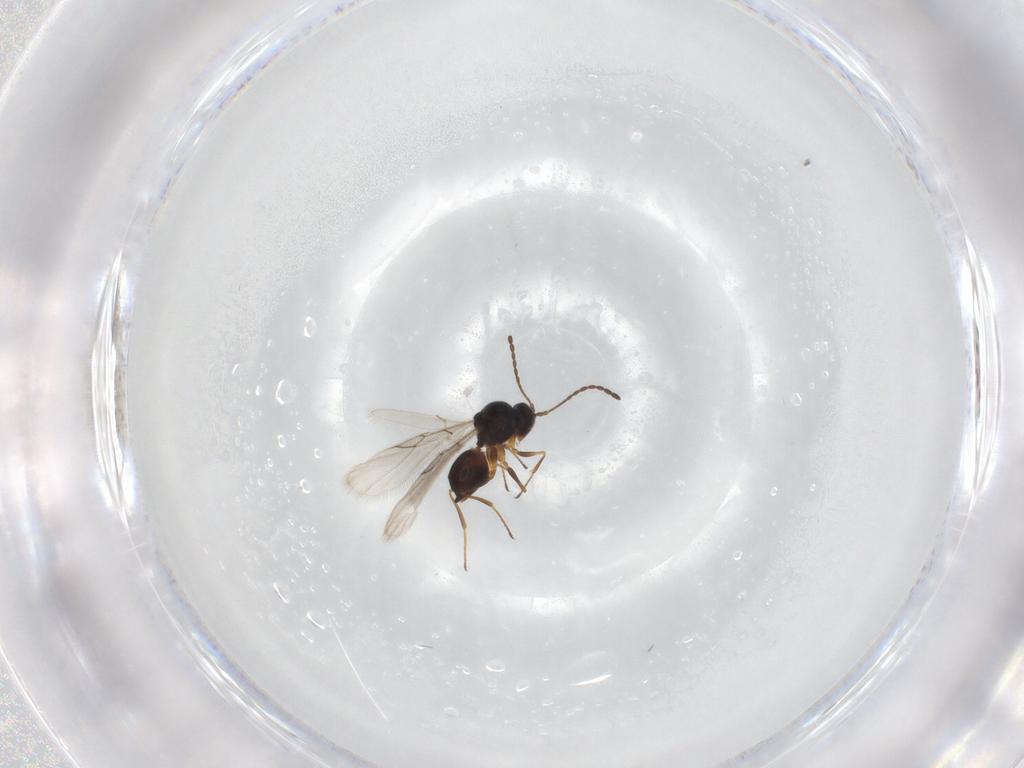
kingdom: Animalia
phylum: Arthropoda
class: Insecta
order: Hymenoptera
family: Figitidae
